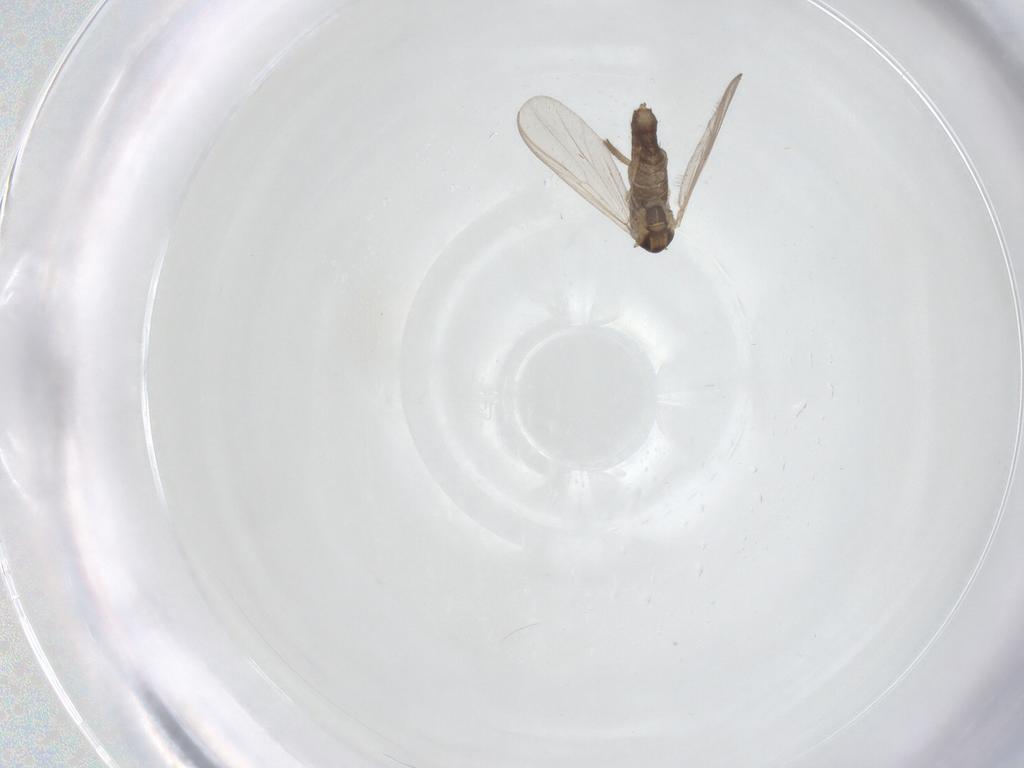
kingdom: Animalia
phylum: Arthropoda
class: Insecta
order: Diptera
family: Chironomidae
